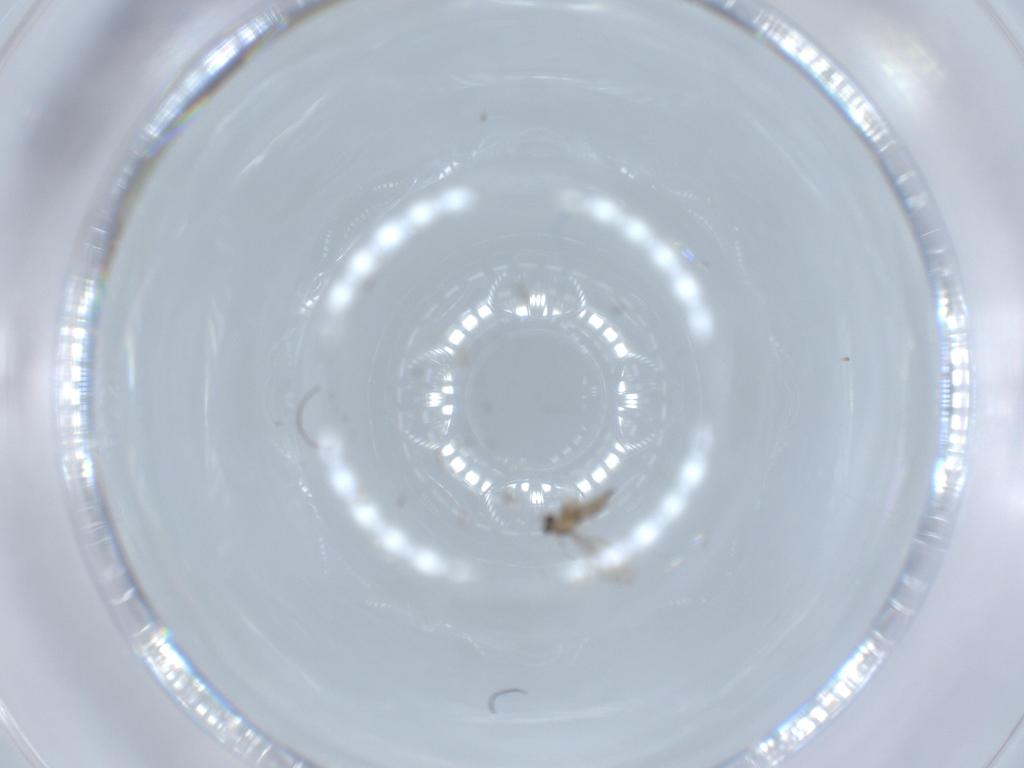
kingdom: Animalia
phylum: Arthropoda
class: Insecta
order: Diptera
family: Cecidomyiidae
